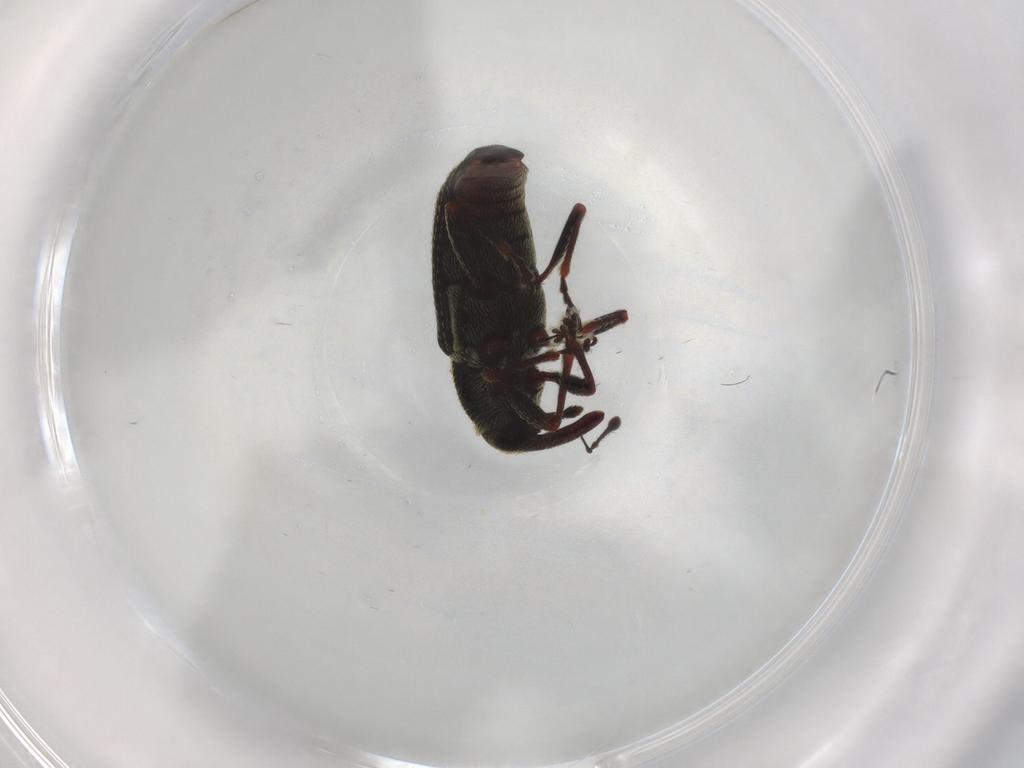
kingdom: Animalia
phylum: Arthropoda
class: Insecta
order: Coleoptera
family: Curculionidae
